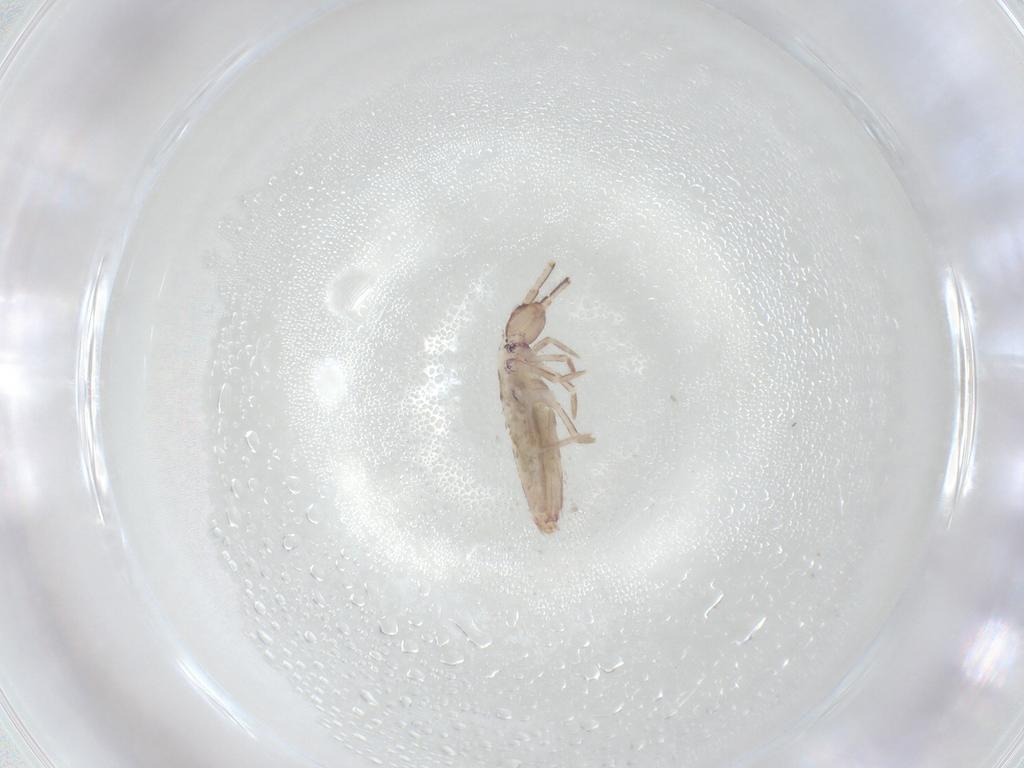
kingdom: Animalia
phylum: Arthropoda
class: Collembola
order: Entomobryomorpha
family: Entomobryidae
